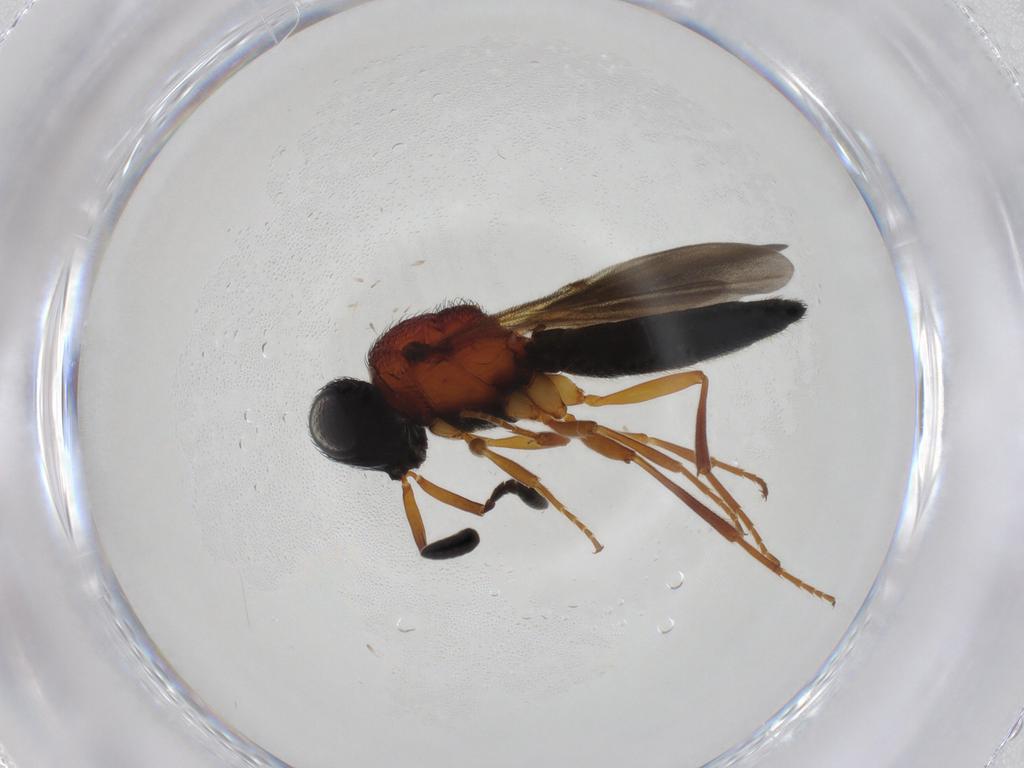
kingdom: Animalia
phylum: Arthropoda
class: Insecta
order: Hymenoptera
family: Scelionidae
